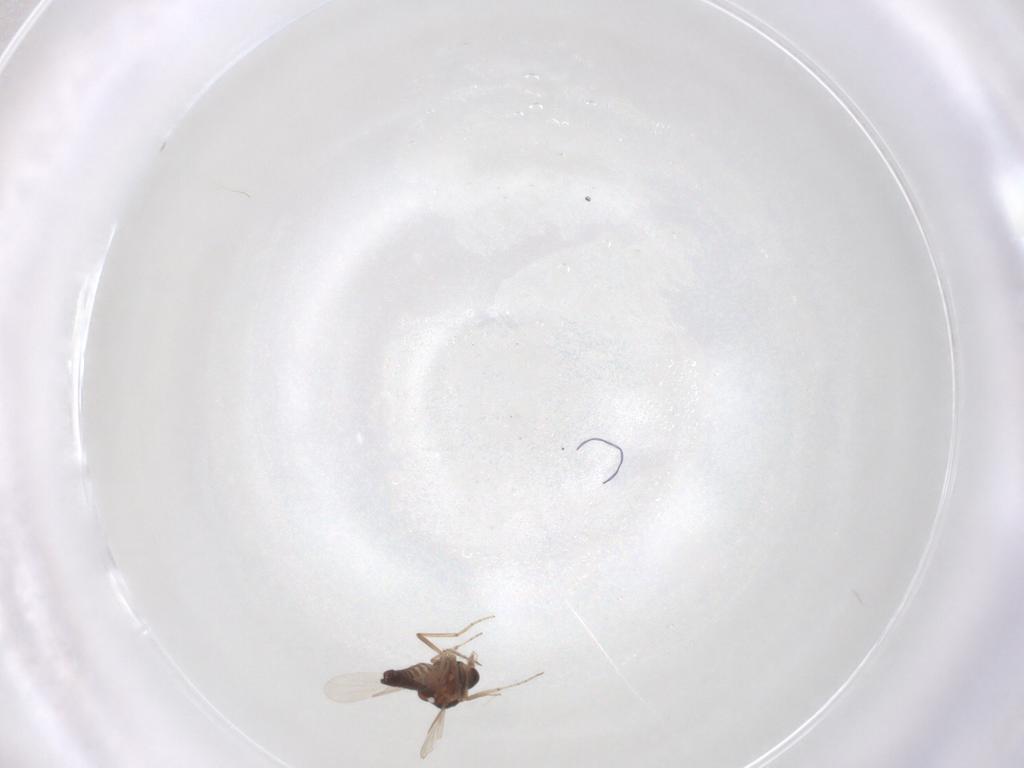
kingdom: Animalia
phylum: Arthropoda
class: Insecta
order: Diptera
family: Ceratopogonidae
